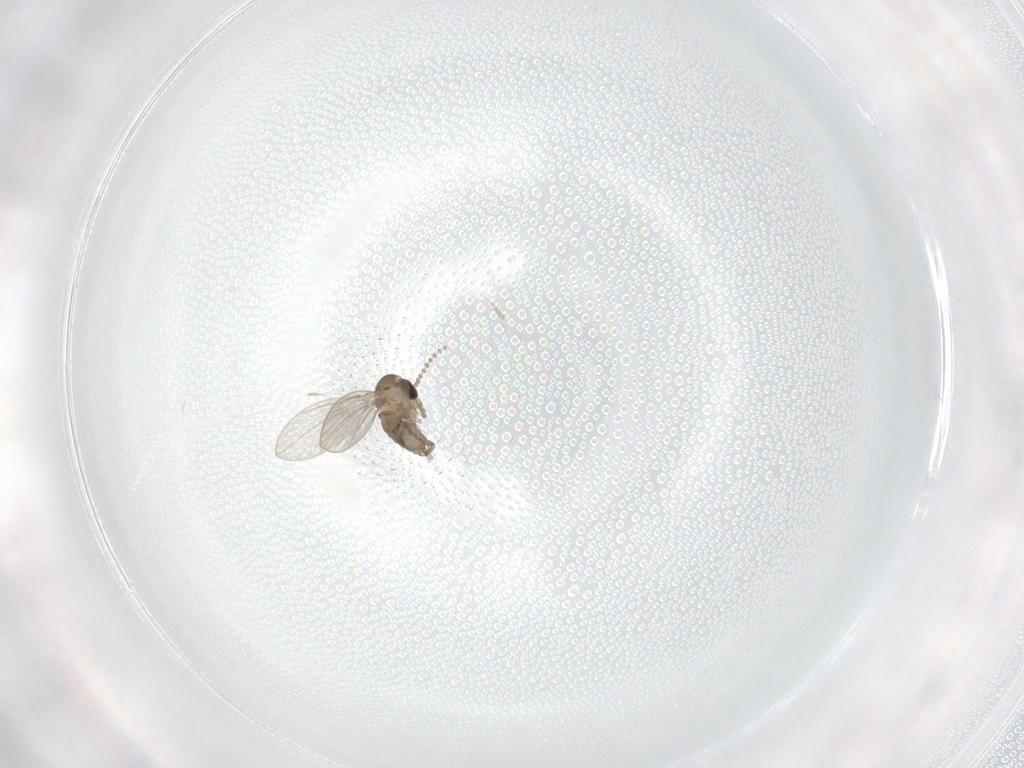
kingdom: Animalia
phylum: Arthropoda
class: Insecta
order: Diptera
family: Psychodidae
